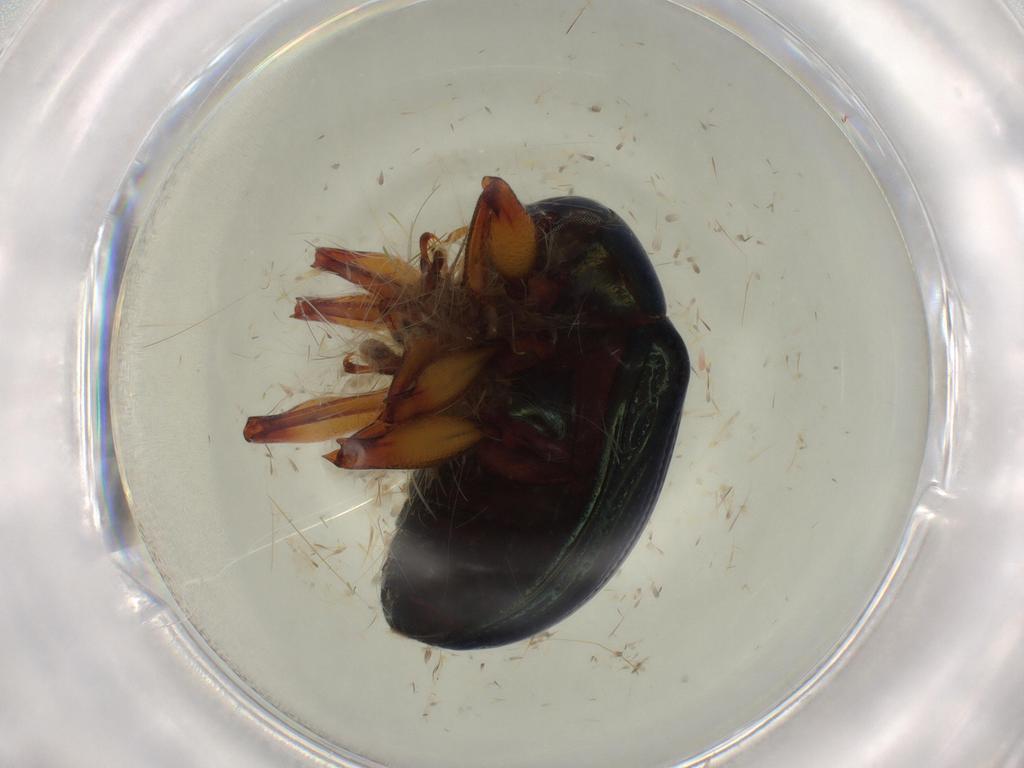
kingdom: Animalia
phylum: Arthropoda
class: Insecta
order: Coleoptera
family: Chrysomelidae
